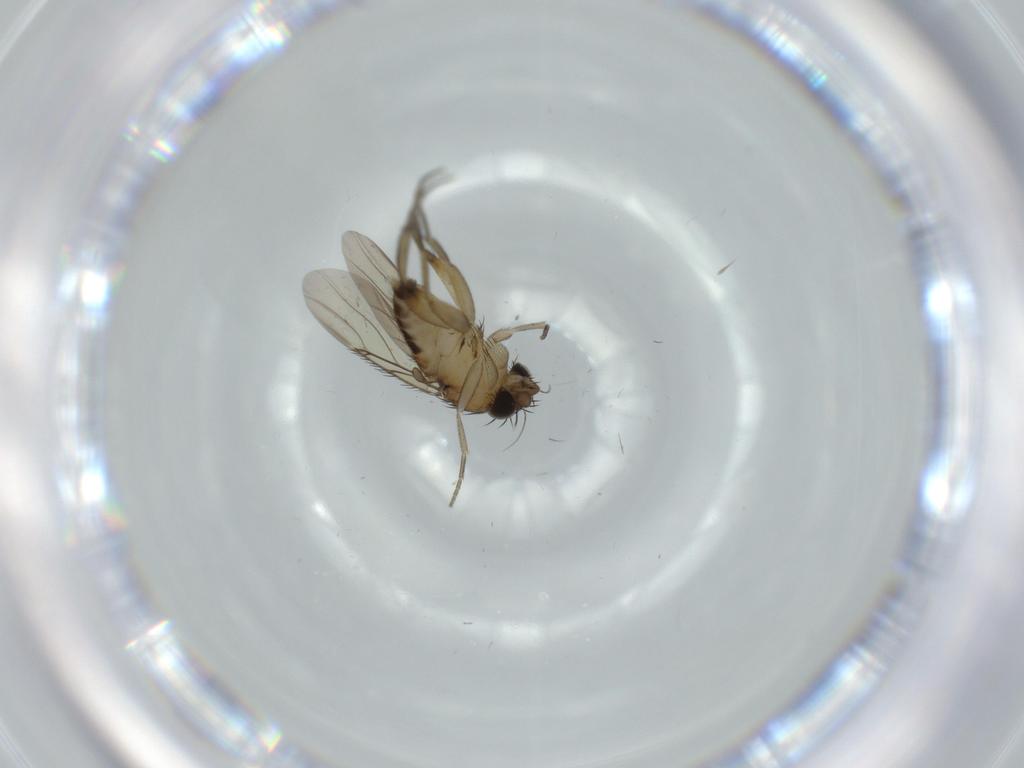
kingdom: Animalia
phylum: Arthropoda
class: Insecta
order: Diptera
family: Phoridae
